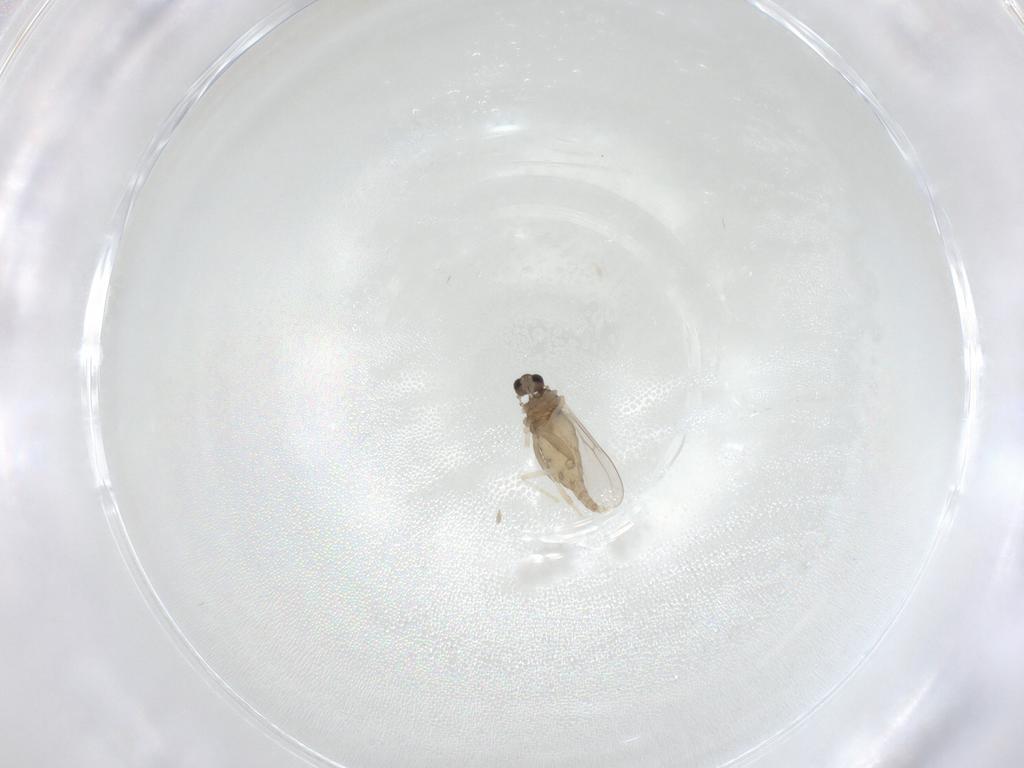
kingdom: Animalia
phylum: Arthropoda
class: Insecta
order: Diptera
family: Cecidomyiidae
